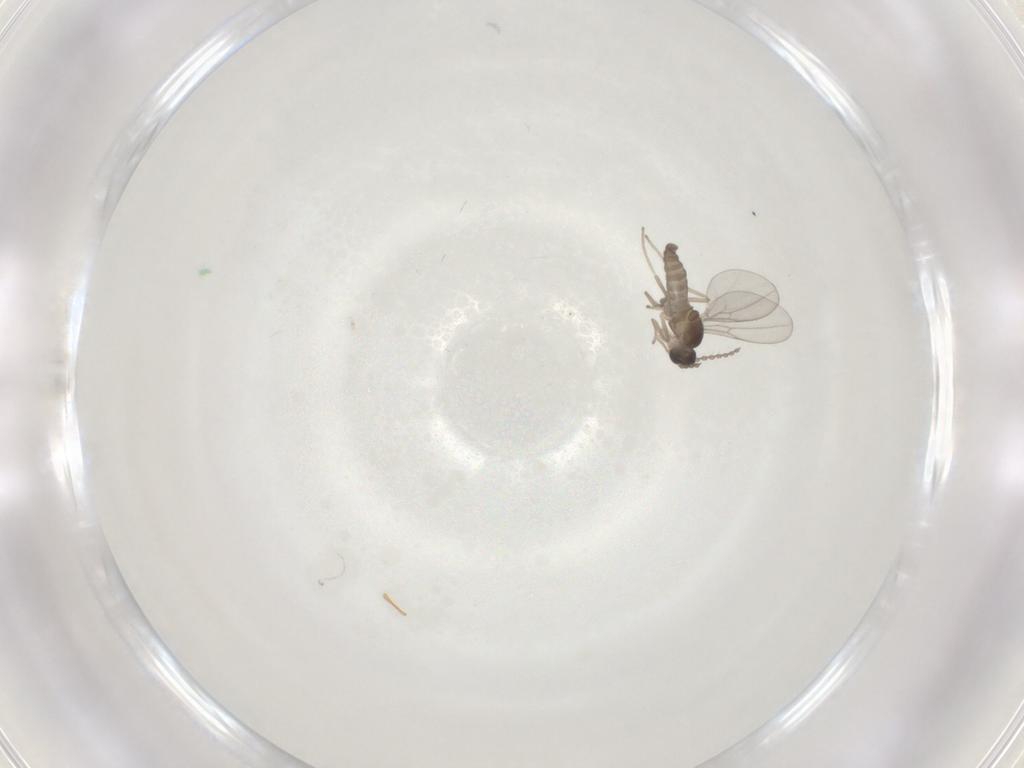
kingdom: Animalia
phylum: Arthropoda
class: Insecta
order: Diptera
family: Cecidomyiidae
